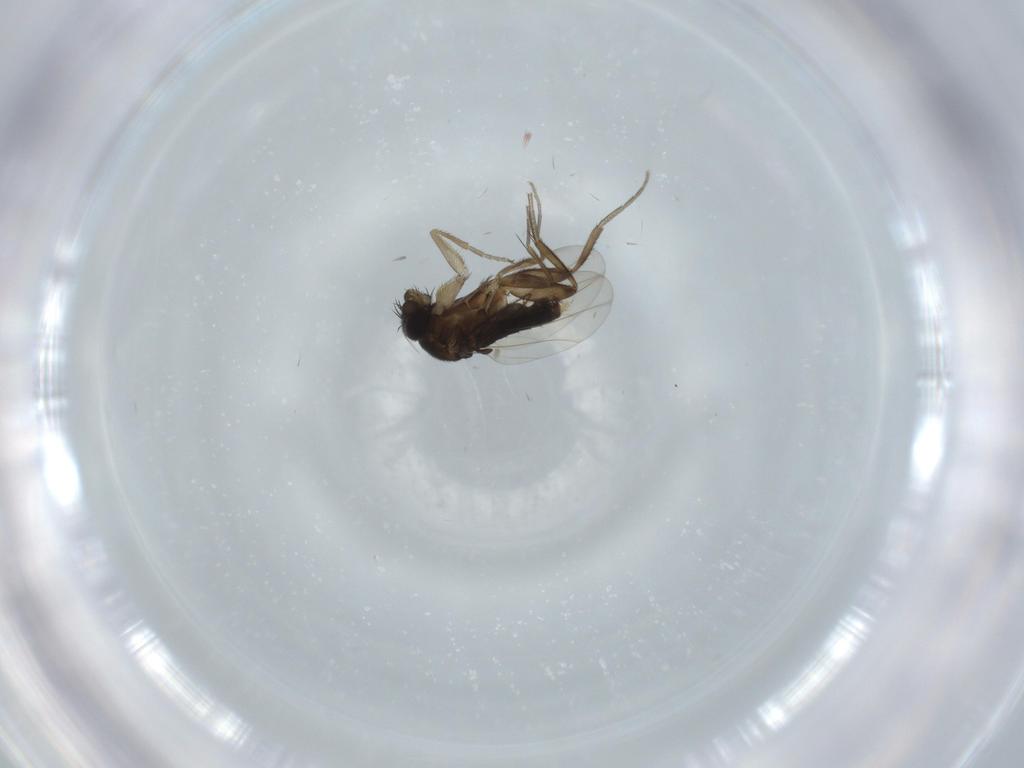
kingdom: Animalia
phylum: Arthropoda
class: Insecta
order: Diptera
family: Phoridae
